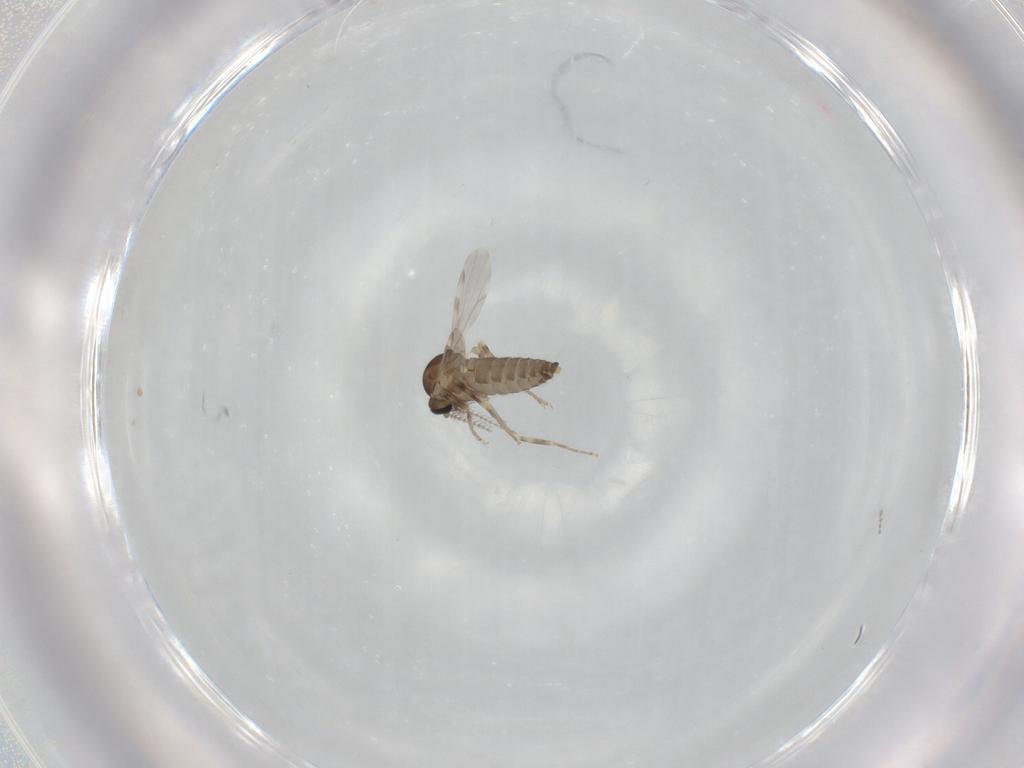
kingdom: Animalia
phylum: Arthropoda
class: Insecta
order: Diptera
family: Ceratopogonidae
